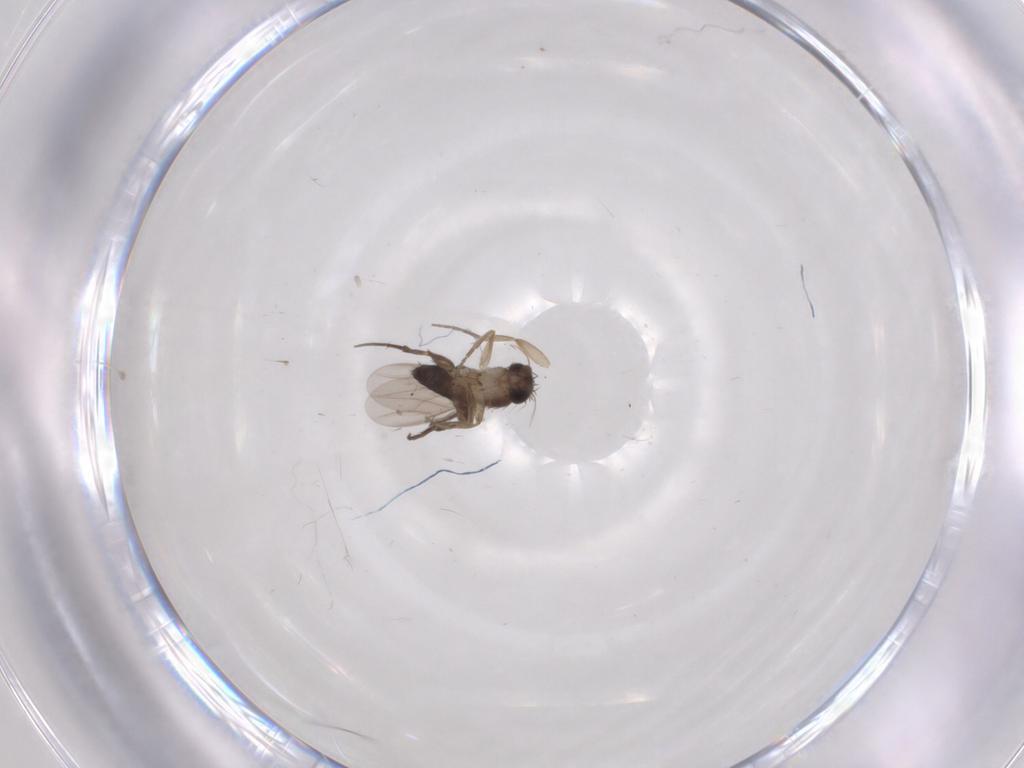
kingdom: Animalia
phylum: Arthropoda
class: Insecta
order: Diptera
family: Phoridae
